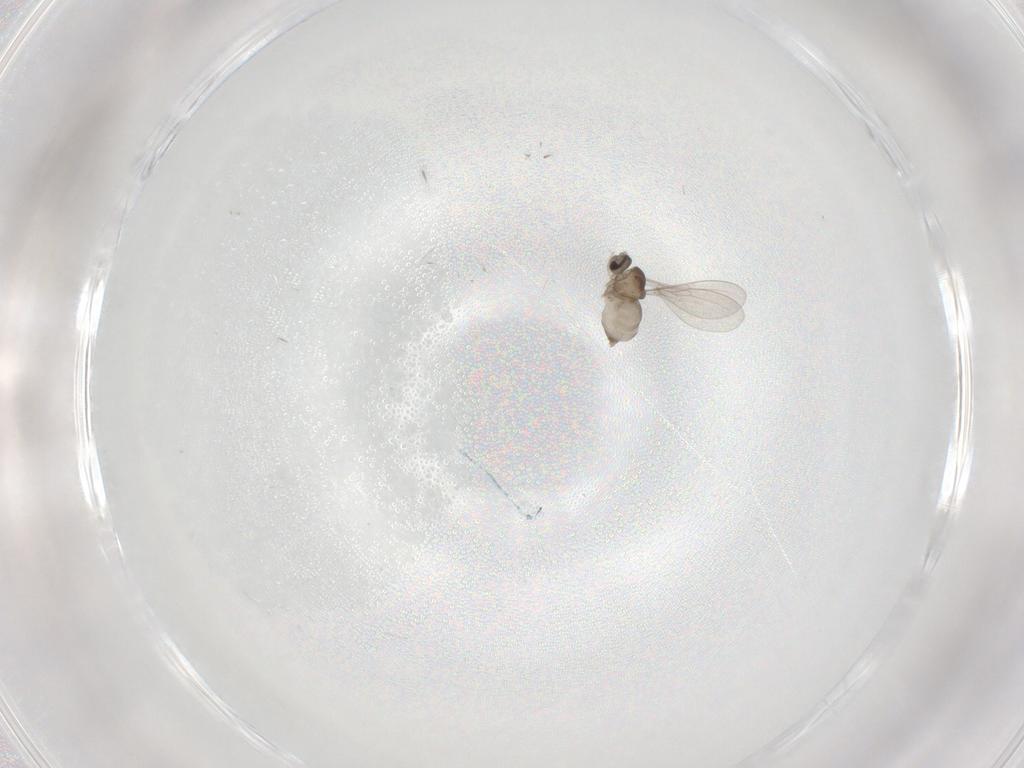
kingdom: Animalia
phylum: Arthropoda
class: Insecta
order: Diptera
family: Cecidomyiidae
